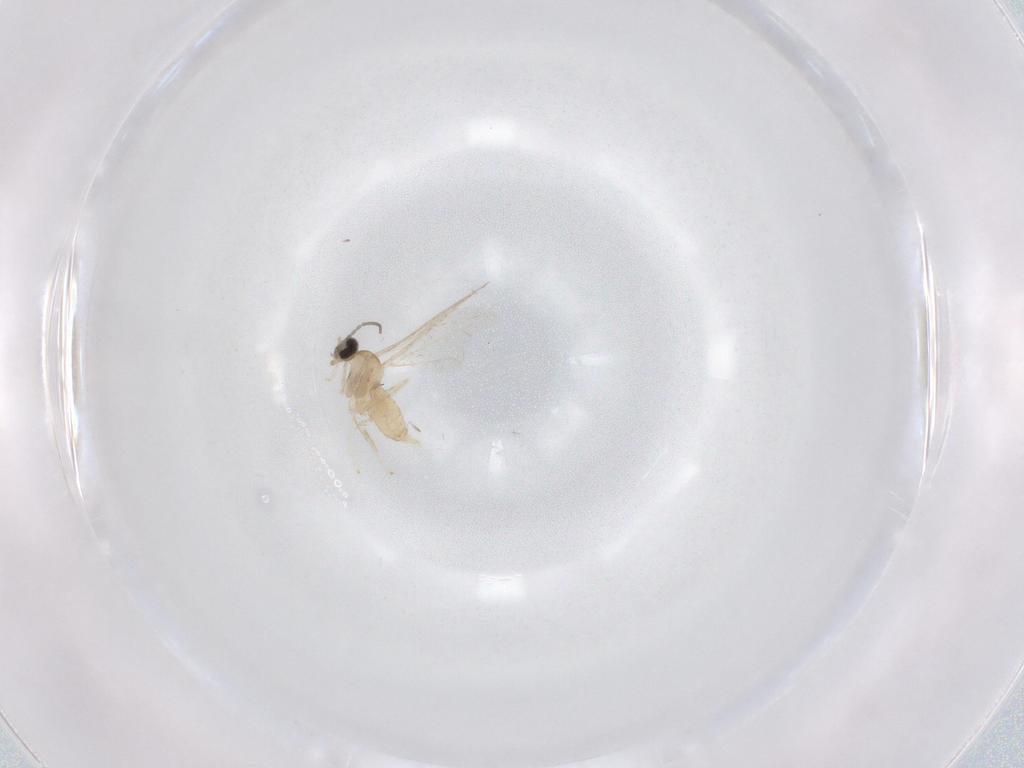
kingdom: Animalia
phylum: Arthropoda
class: Insecta
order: Diptera
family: Cecidomyiidae
